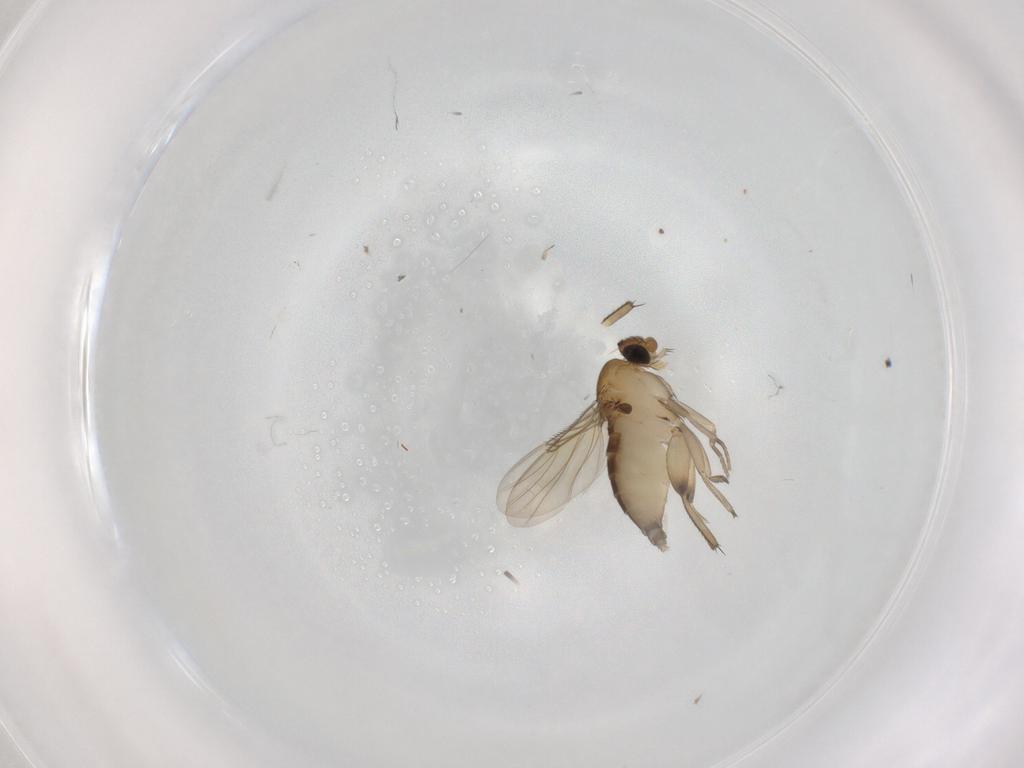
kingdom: Animalia
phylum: Arthropoda
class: Insecta
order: Diptera
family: Phoridae
